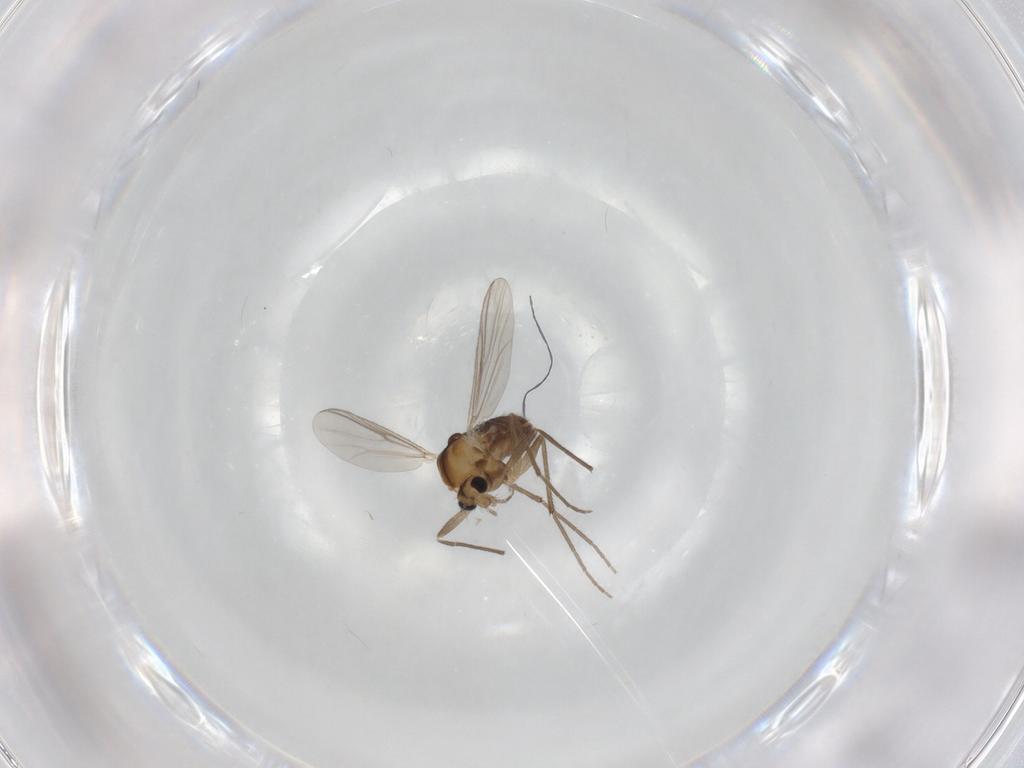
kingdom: Animalia
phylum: Arthropoda
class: Insecta
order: Diptera
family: Chironomidae
